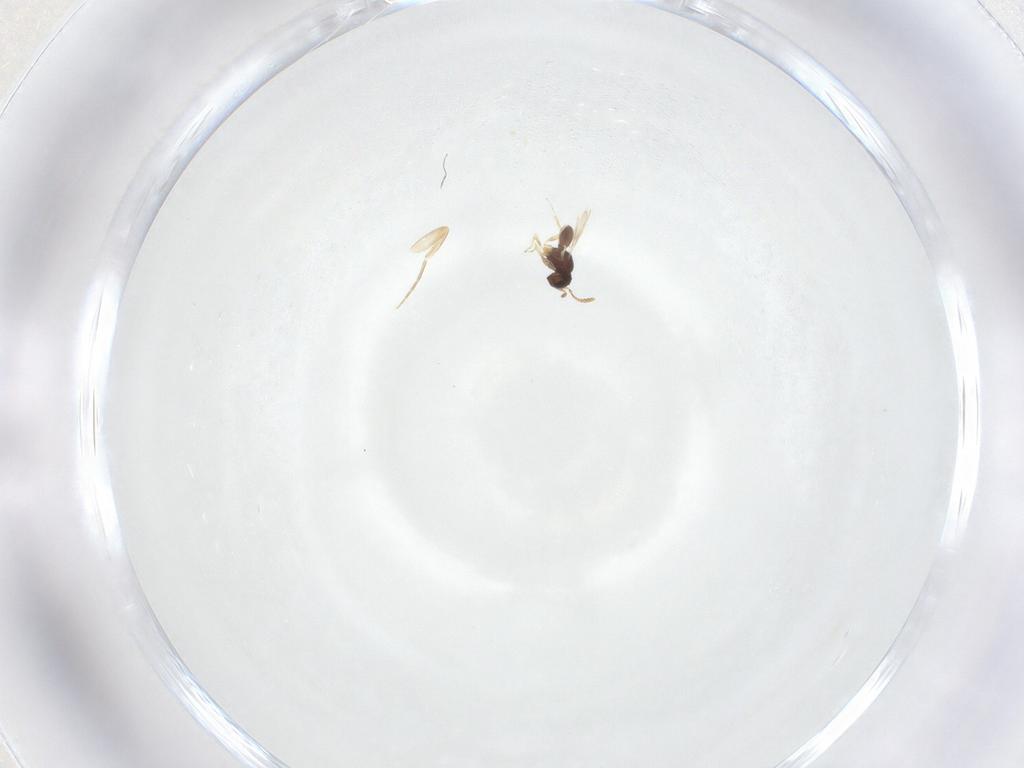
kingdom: Animalia
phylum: Arthropoda
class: Insecta
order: Hymenoptera
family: Scelionidae
